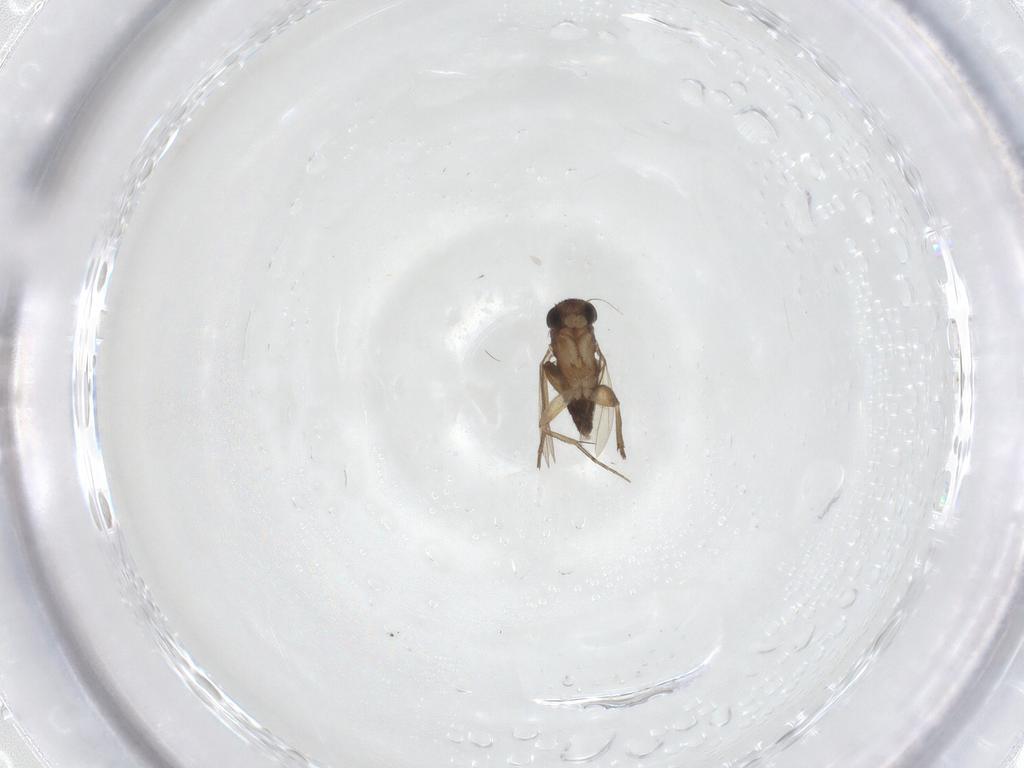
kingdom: Animalia
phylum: Arthropoda
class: Insecta
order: Diptera
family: Phoridae
